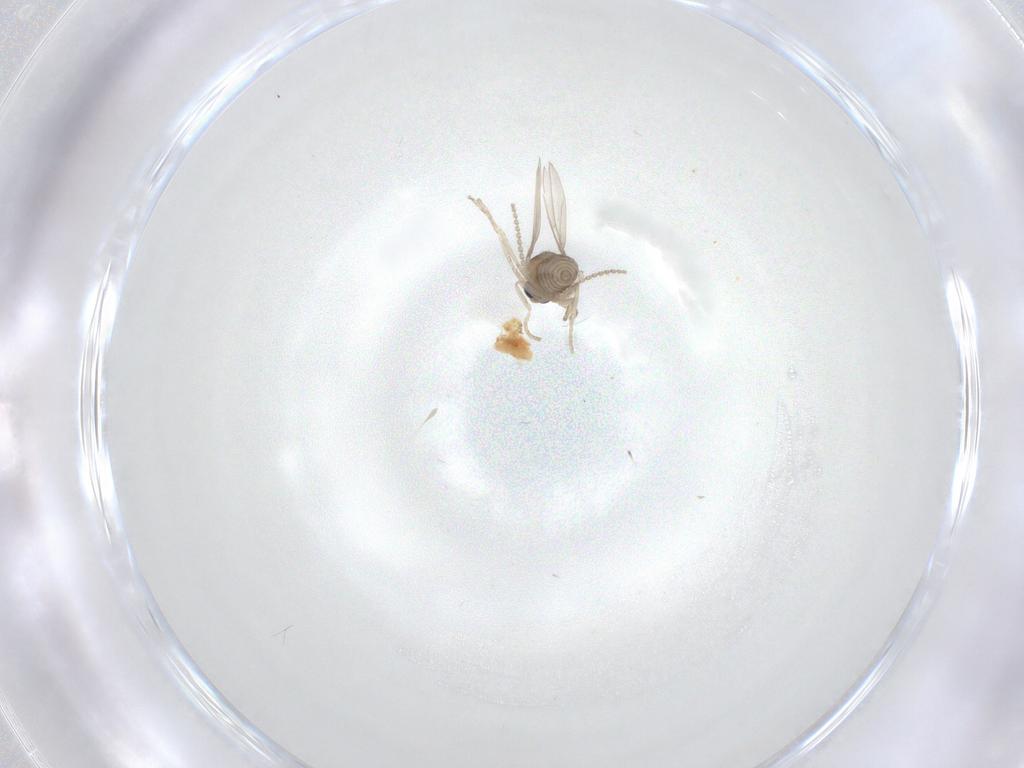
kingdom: Animalia
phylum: Arthropoda
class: Insecta
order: Diptera
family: Cecidomyiidae
